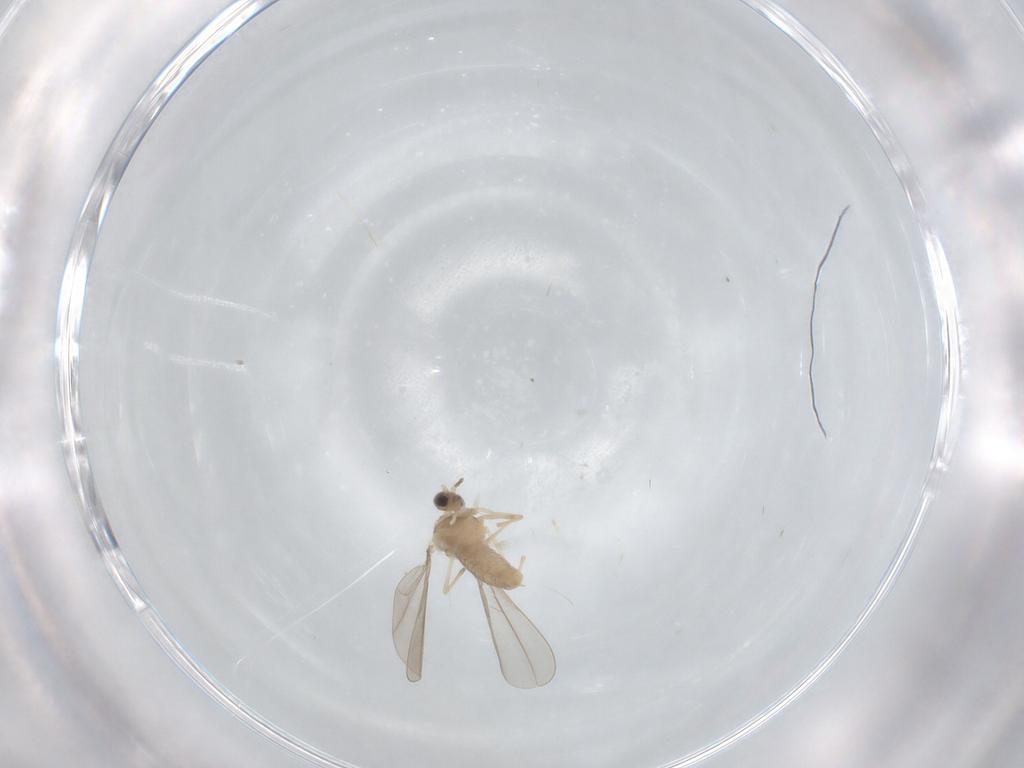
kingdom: Animalia
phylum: Arthropoda
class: Insecta
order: Diptera
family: Cecidomyiidae
